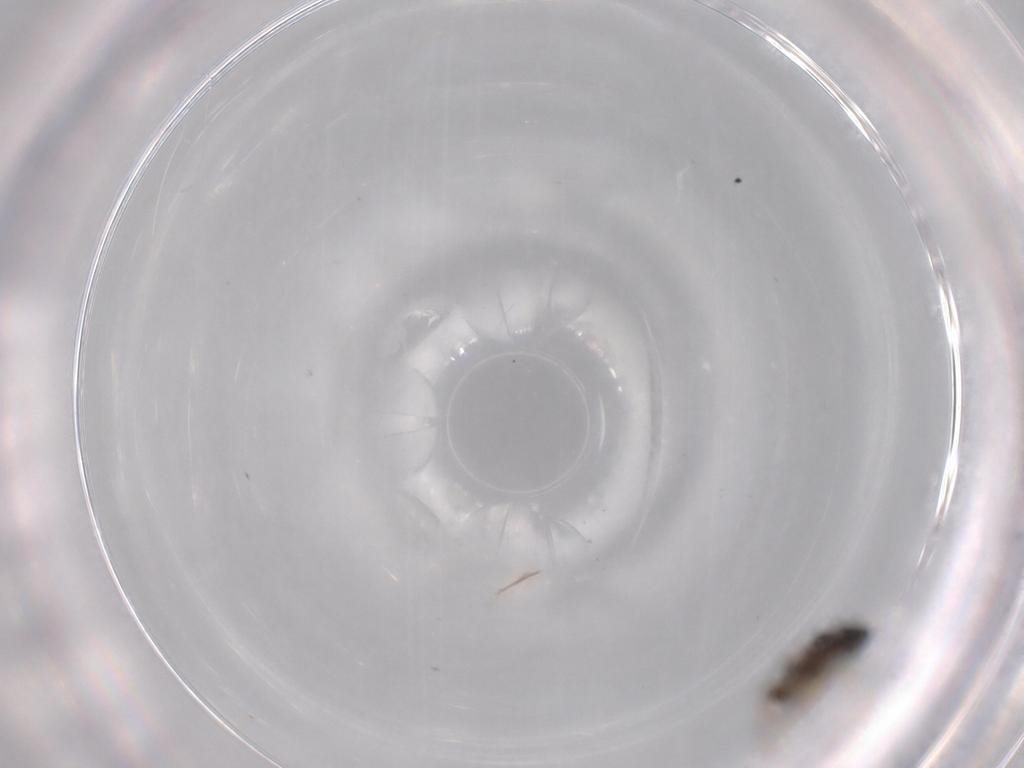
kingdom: Animalia
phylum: Arthropoda
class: Insecta
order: Diptera
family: Phoridae
